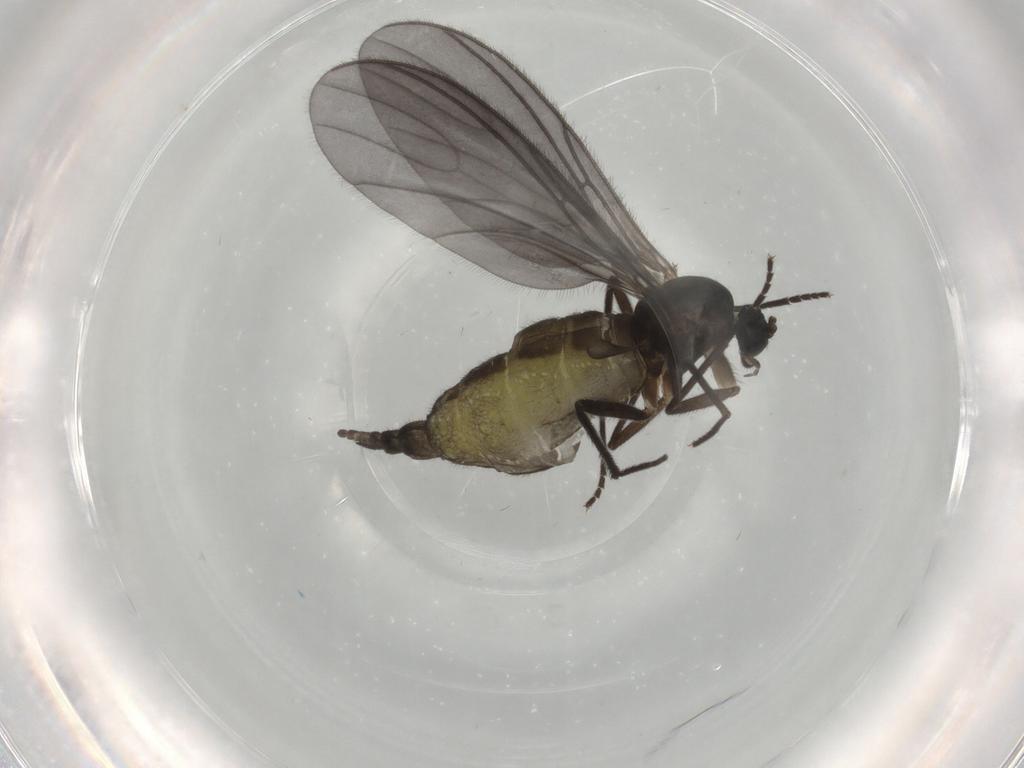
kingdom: Animalia
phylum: Arthropoda
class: Insecta
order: Diptera
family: Sciaridae
